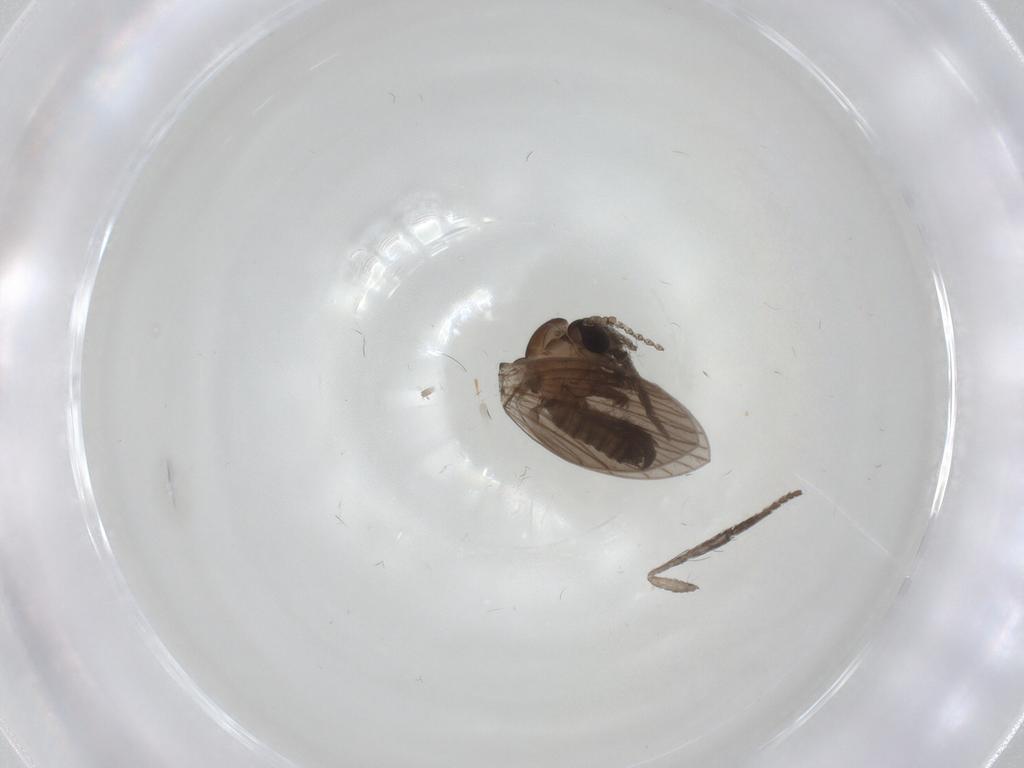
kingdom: Animalia
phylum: Arthropoda
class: Insecta
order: Diptera
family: Psychodidae
